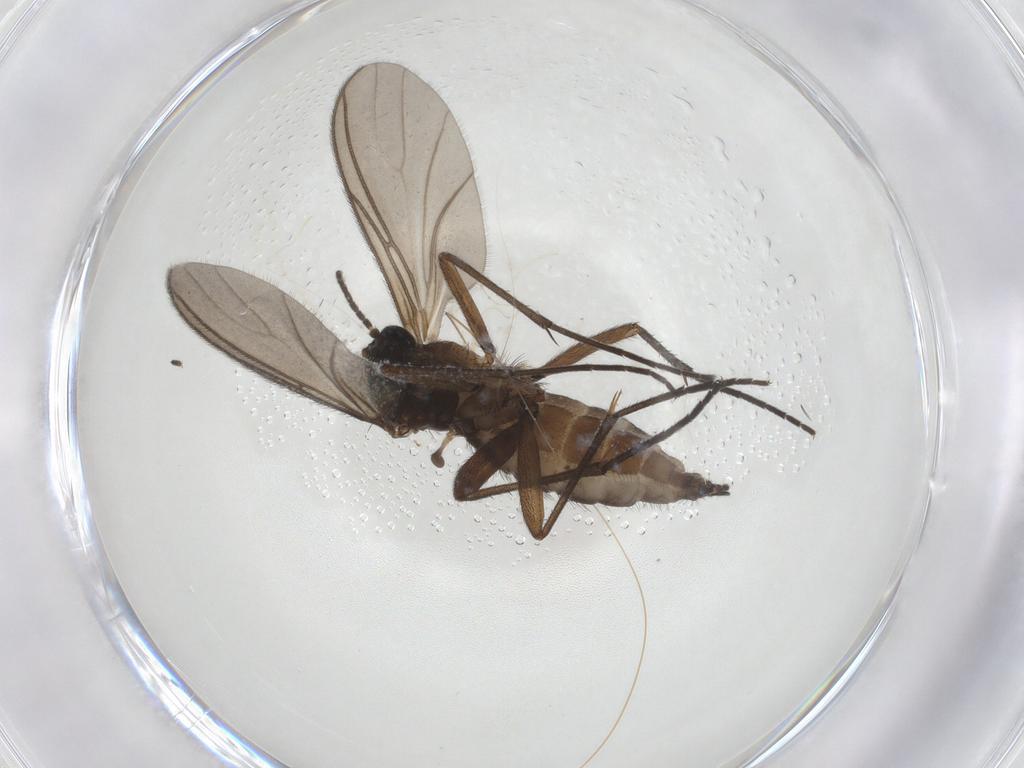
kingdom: Animalia
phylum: Arthropoda
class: Insecta
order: Diptera
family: Sciaridae
